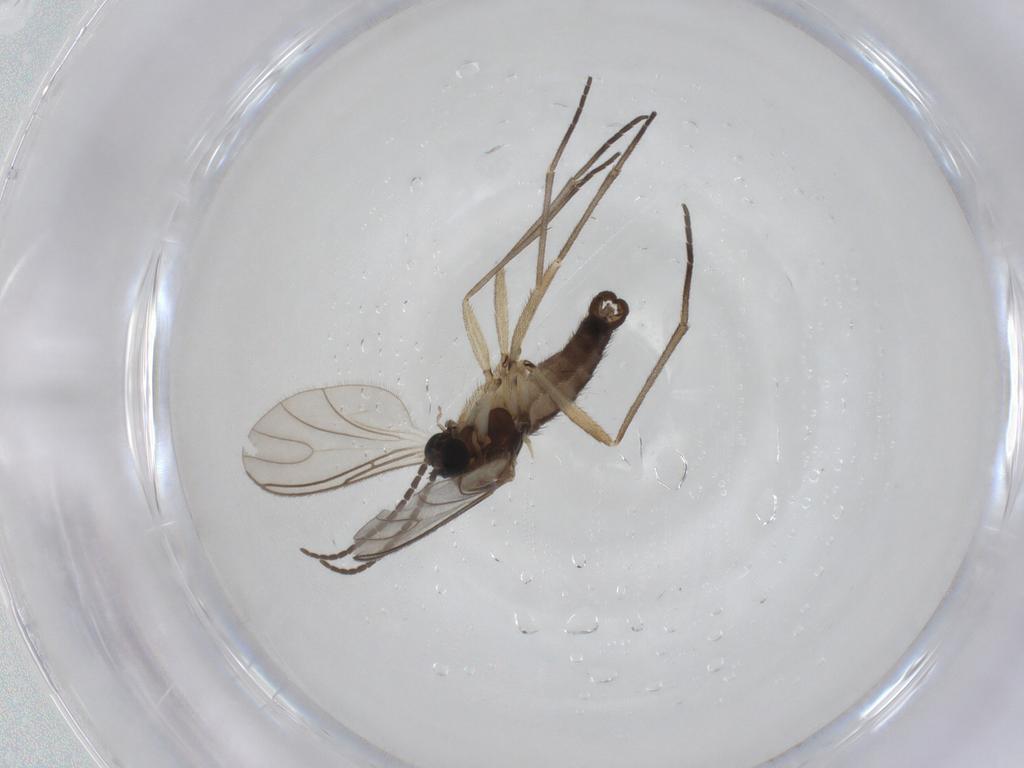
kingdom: Animalia
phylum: Arthropoda
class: Insecta
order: Diptera
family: Sciaridae
